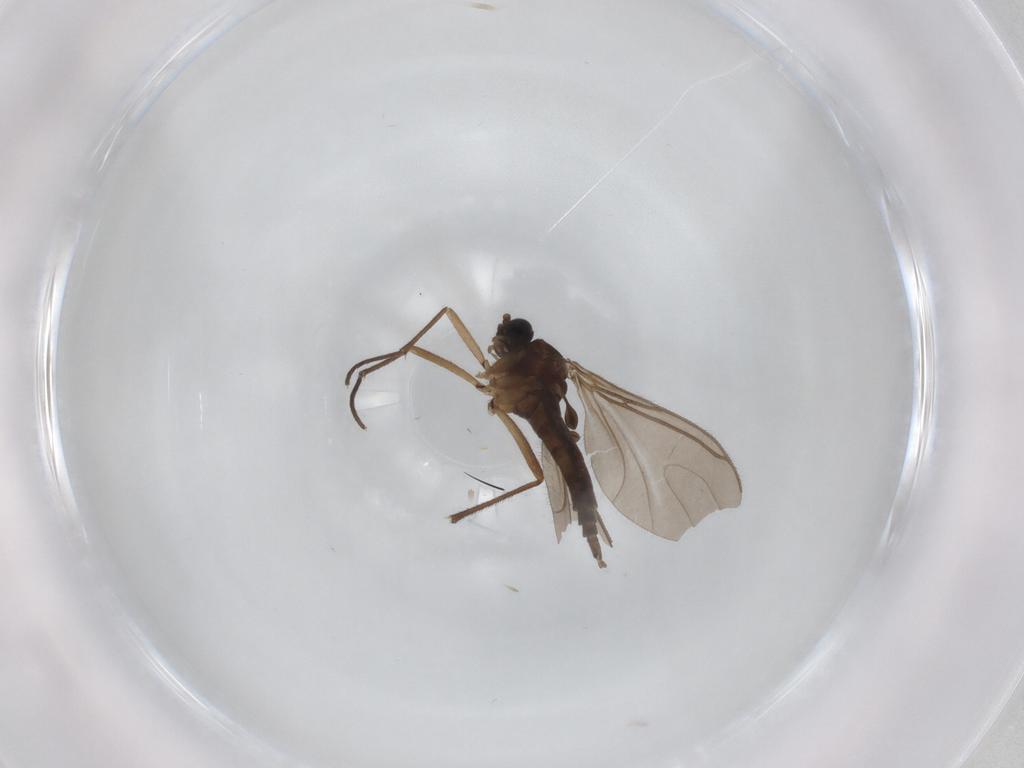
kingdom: Animalia
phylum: Arthropoda
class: Insecta
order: Diptera
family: Sciaridae
